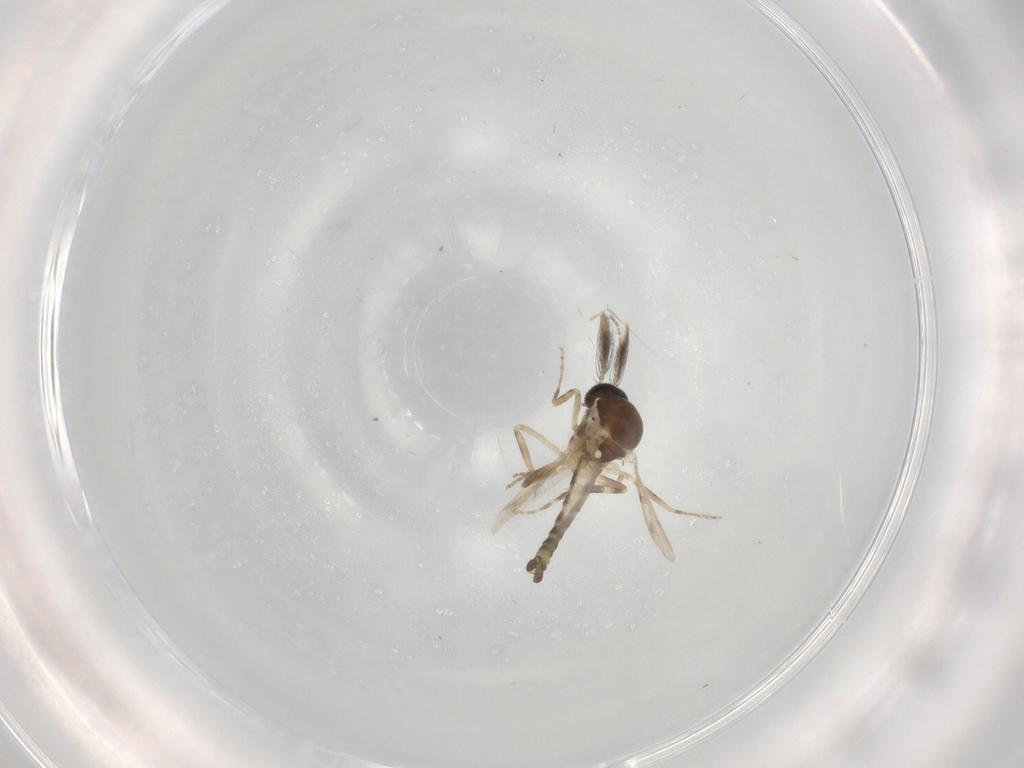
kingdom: Animalia
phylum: Arthropoda
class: Insecta
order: Diptera
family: Ceratopogonidae
